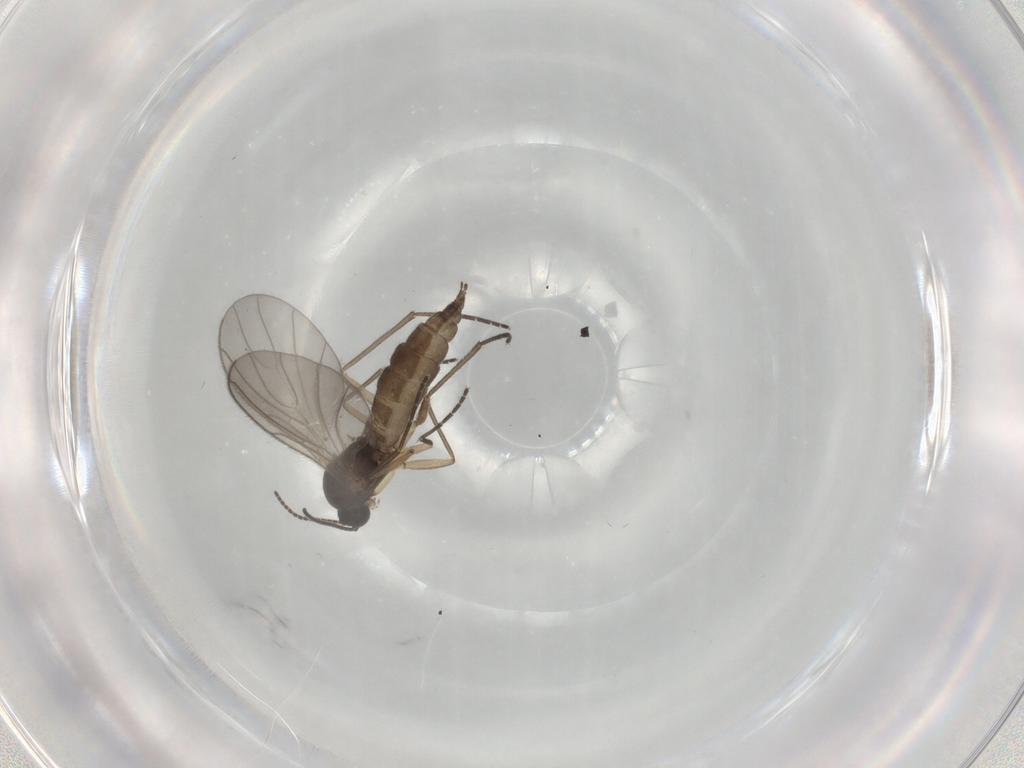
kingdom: Animalia
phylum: Arthropoda
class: Insecta
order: Diptera
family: Sciaridae
